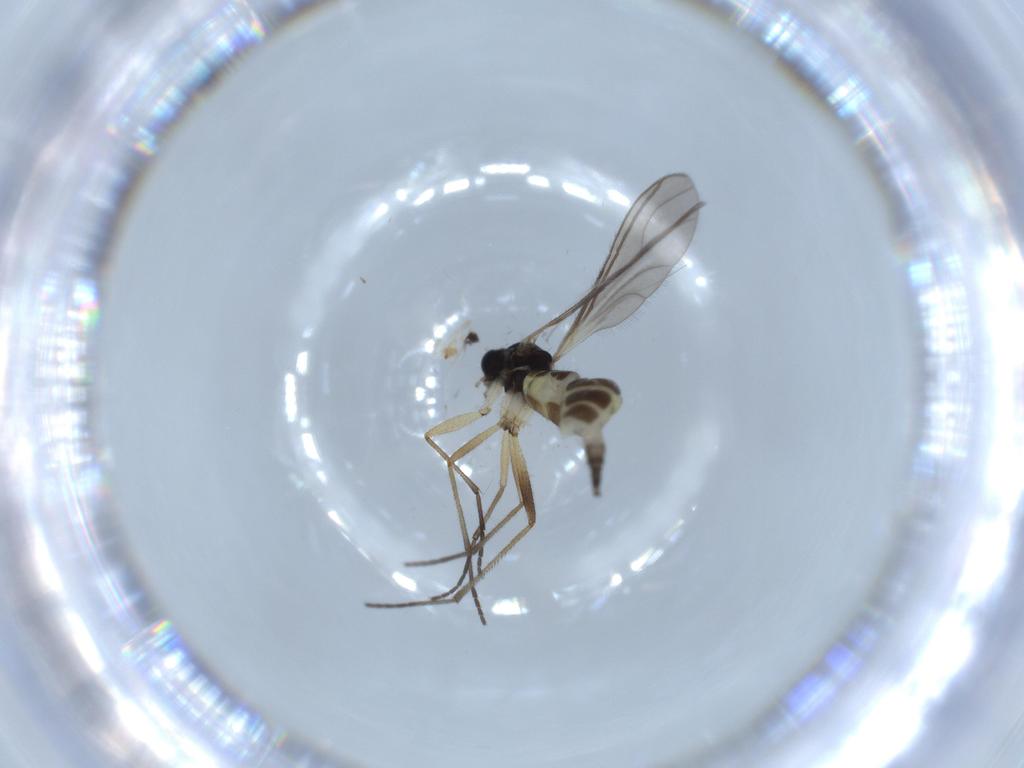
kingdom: Animalia
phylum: Arthropoda
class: Insecta
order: Diptera
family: Sciaridae
